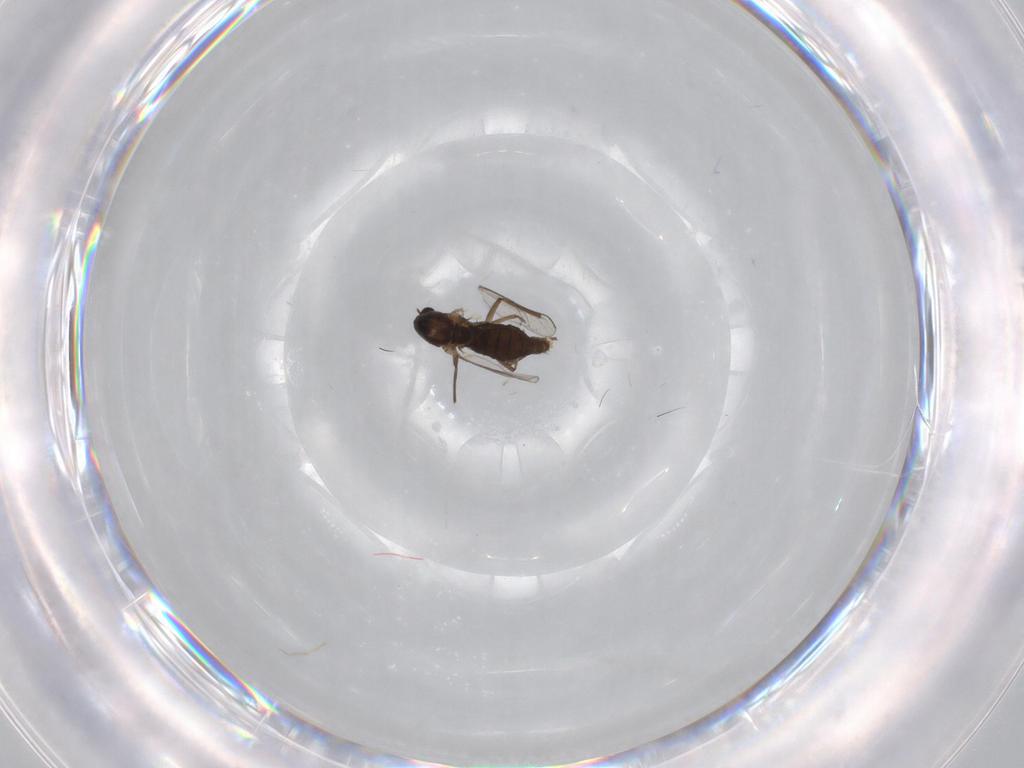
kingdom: Animalia
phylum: Arthropoda
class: Insecta
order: Diptera
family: Chironomidae
